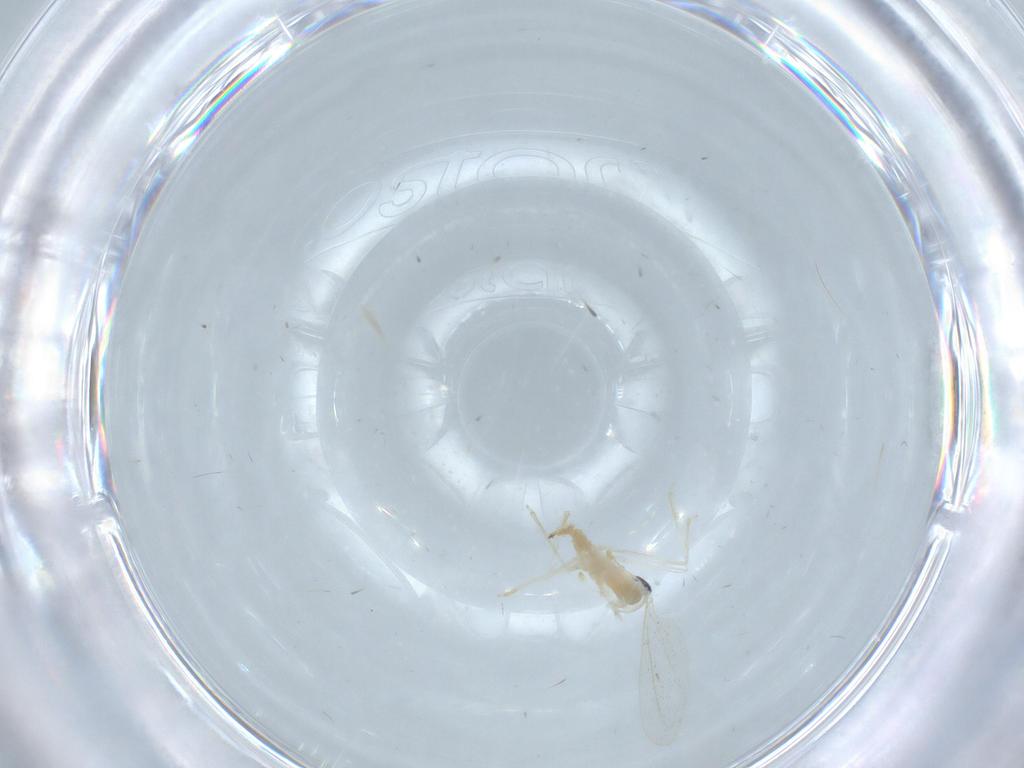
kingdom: Animalia
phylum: Arthropoda
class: Insecta
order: Diptera
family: Cecidomyiidae
